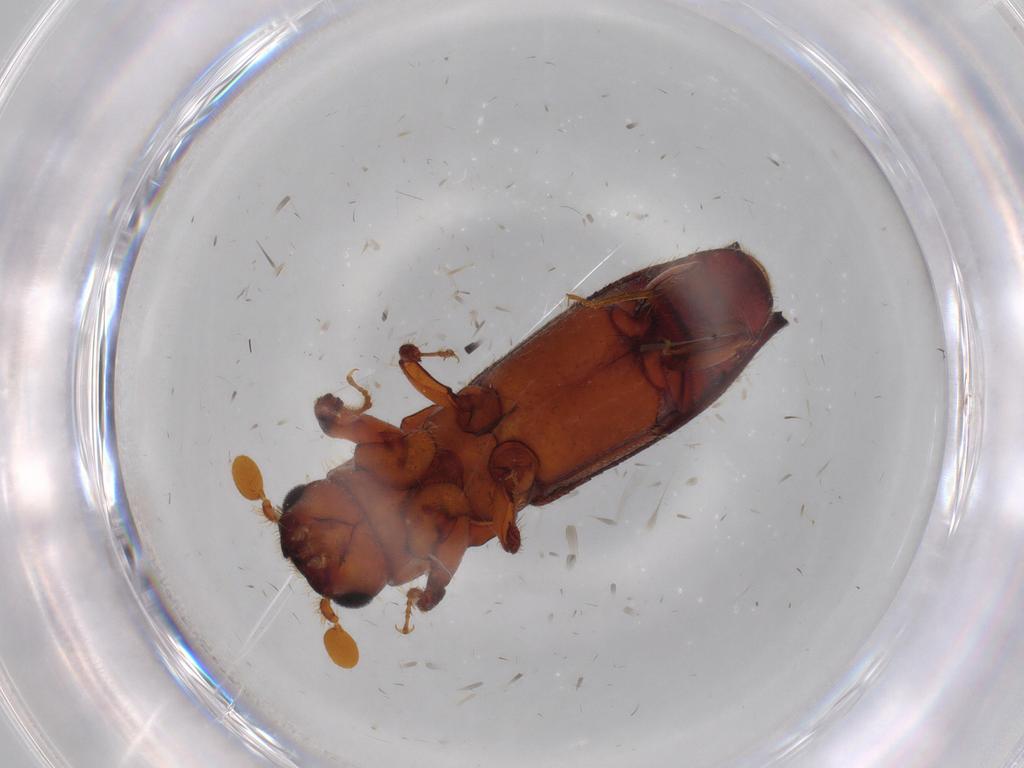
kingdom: Animalia
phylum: Arthropoda
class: Insecta
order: Coleoptera
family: Curculionidae
